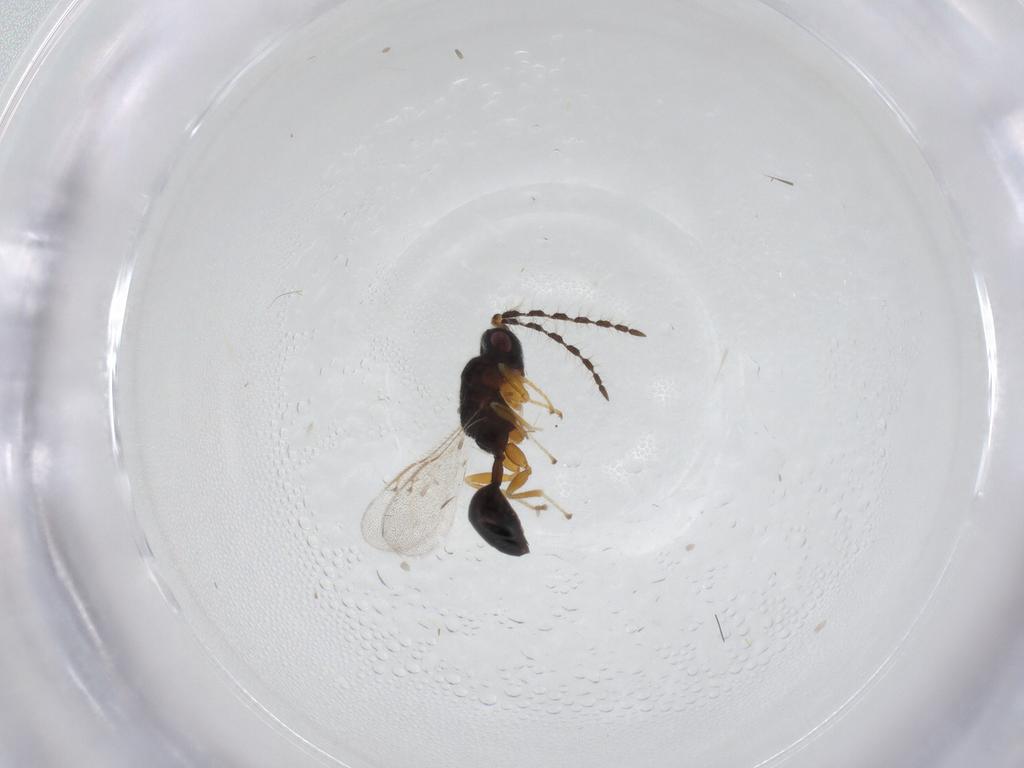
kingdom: Animalia
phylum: Arthropoda
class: Insecta
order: Hymenoptera
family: Eurytomidae
